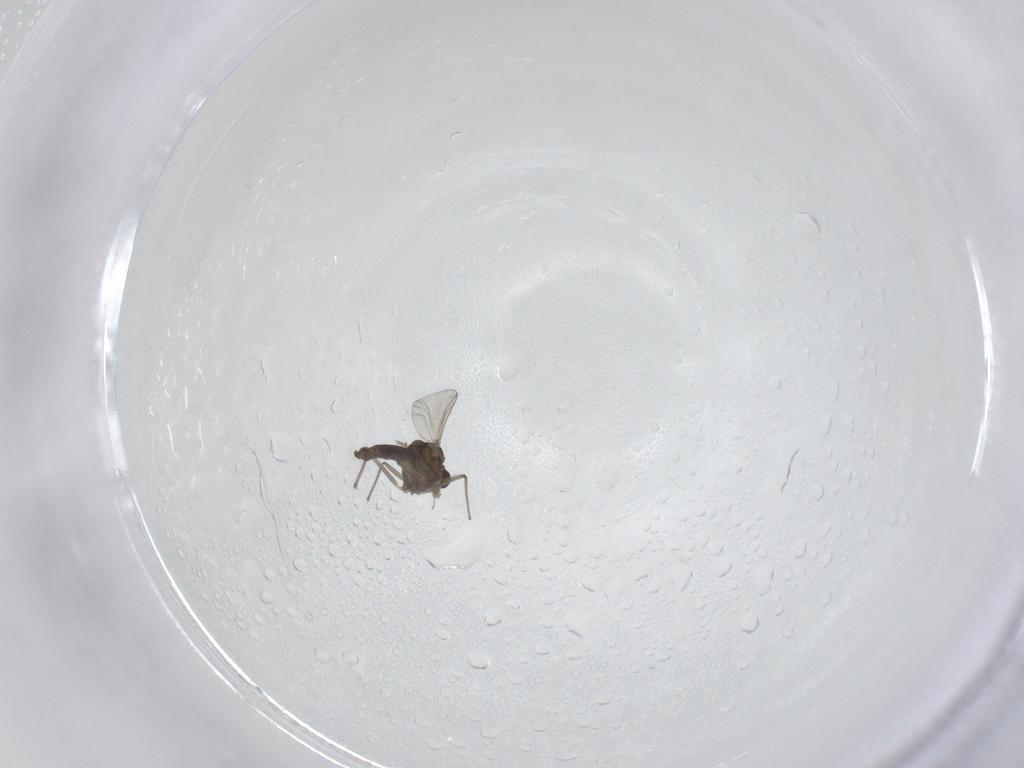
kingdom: Animalia
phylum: Arthropoda
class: Insecta
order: Diptera
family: Chironomidae
